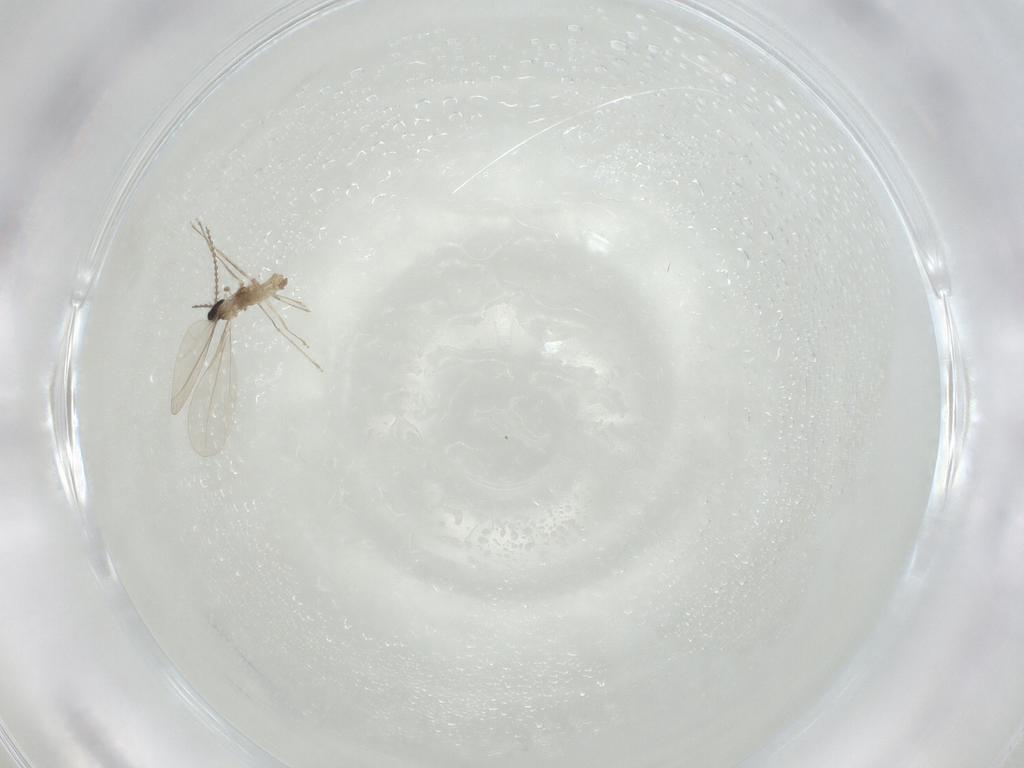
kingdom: Animalia
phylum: Arthropoda
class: Insecta
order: Diptera
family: Cecidomyiidae
